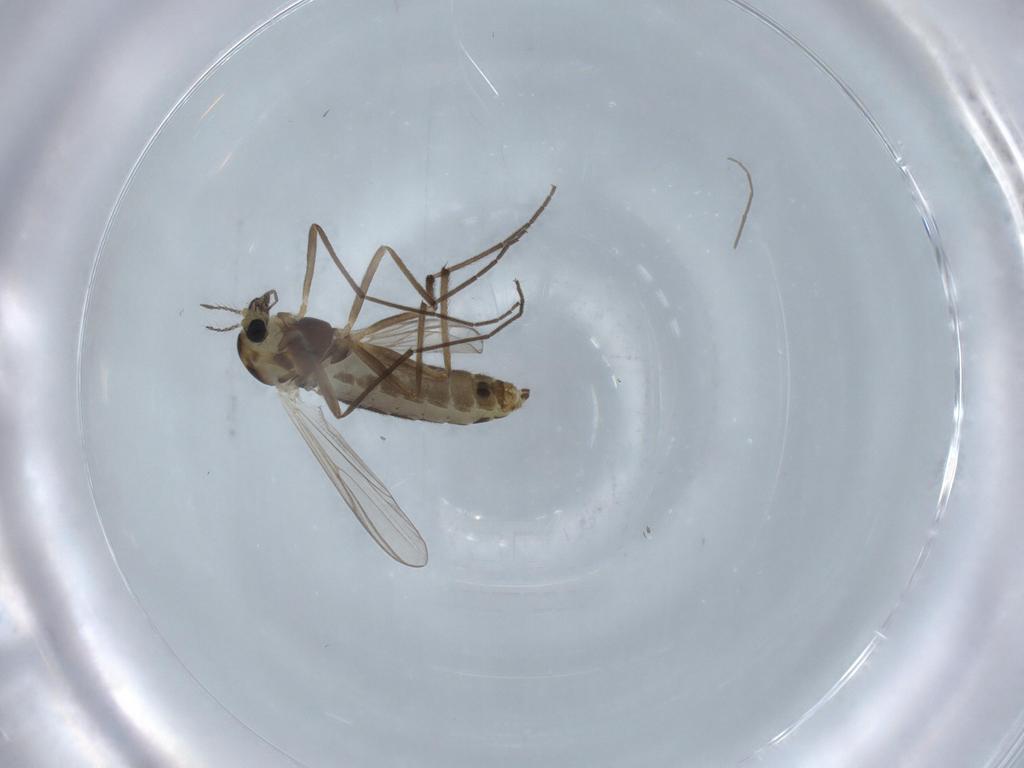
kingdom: Animalia
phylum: Arthropoda
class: Insecta
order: Diptera
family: Chironomidae
